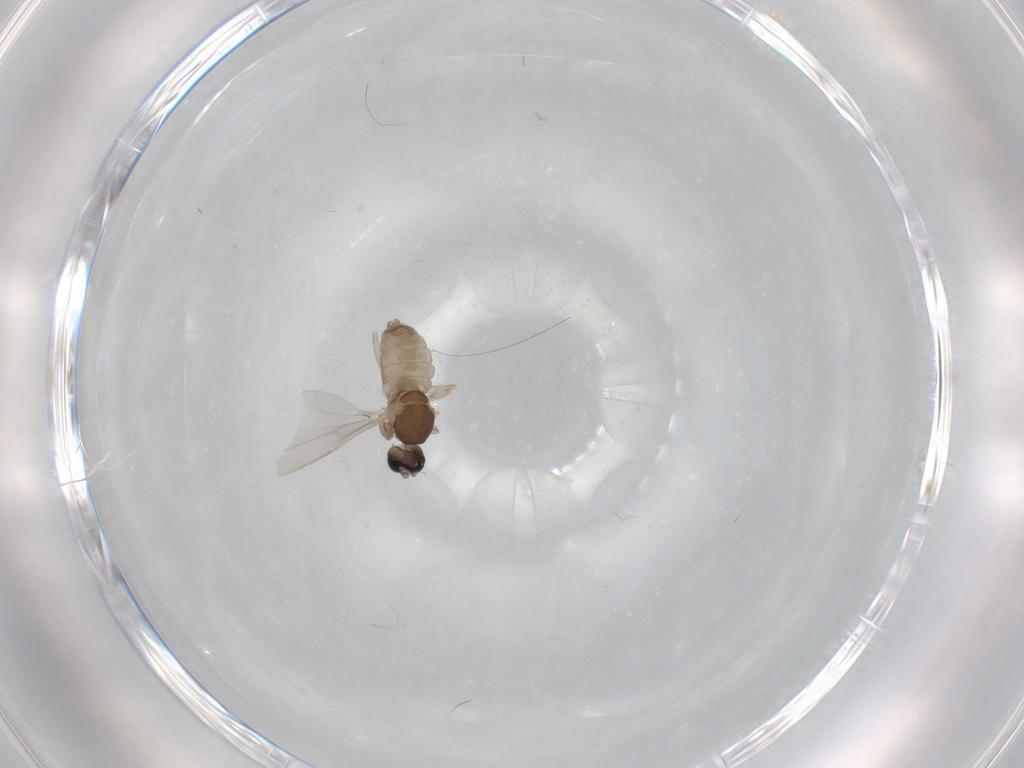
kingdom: Animalia
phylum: Arthropoda
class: Insecta
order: Diptera
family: Cecidomyiidae
